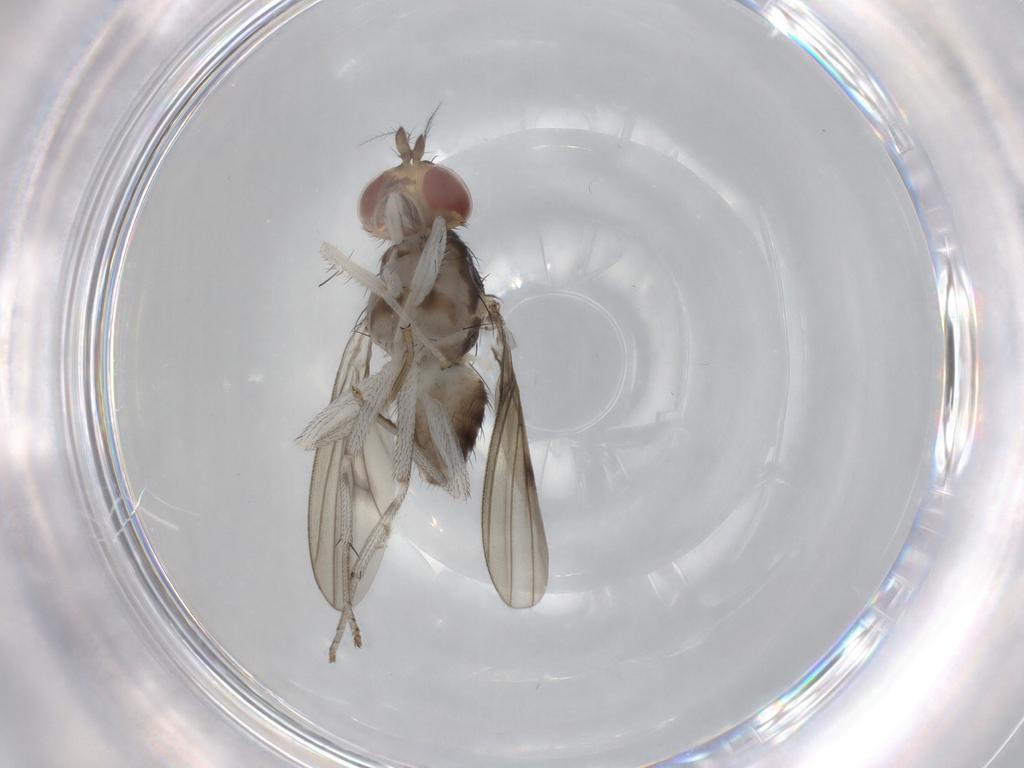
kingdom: Animalia
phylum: Arthropoda
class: Insecta
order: Diptera
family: Lauxaniidae
